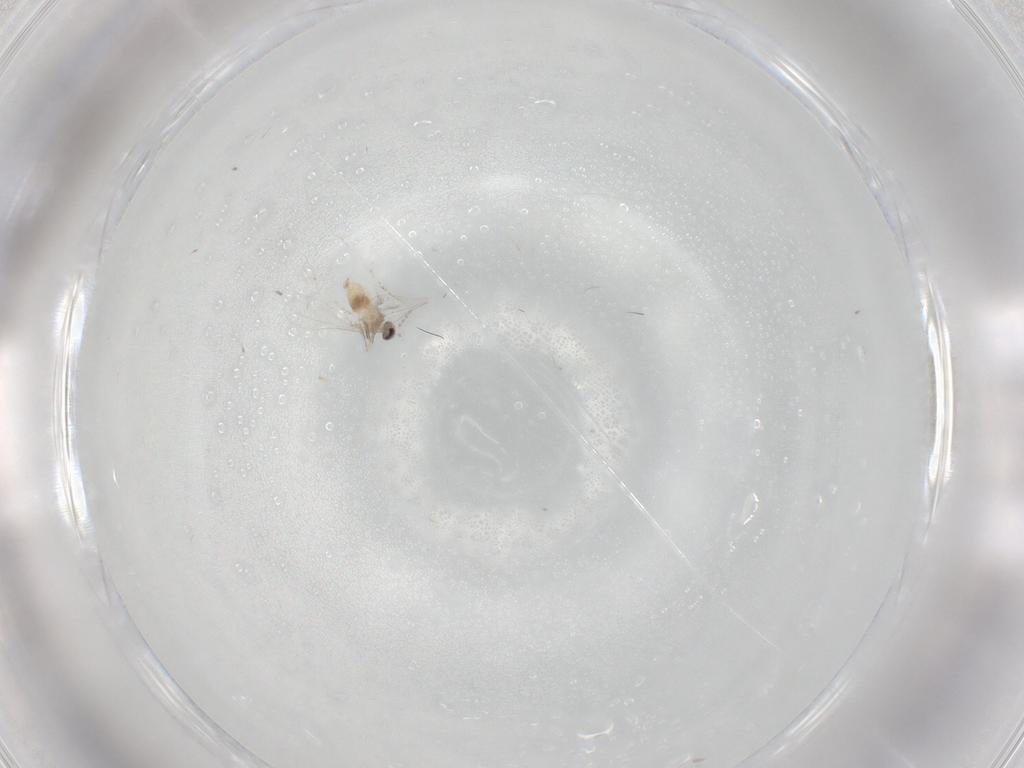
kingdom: Animalia
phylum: Arthropoda
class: Insecta
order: Diptera
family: Cecidomyiidae
